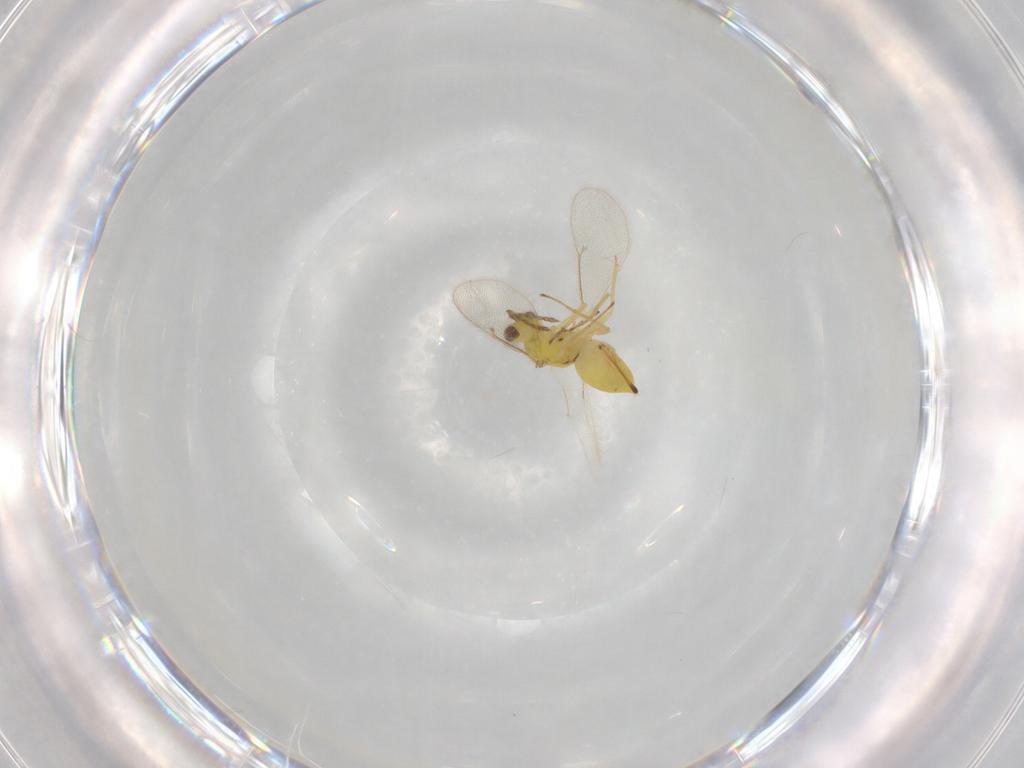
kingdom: Animalia
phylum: Arthropoda
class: Insecta
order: Hymenoptera
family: Eulophidae
